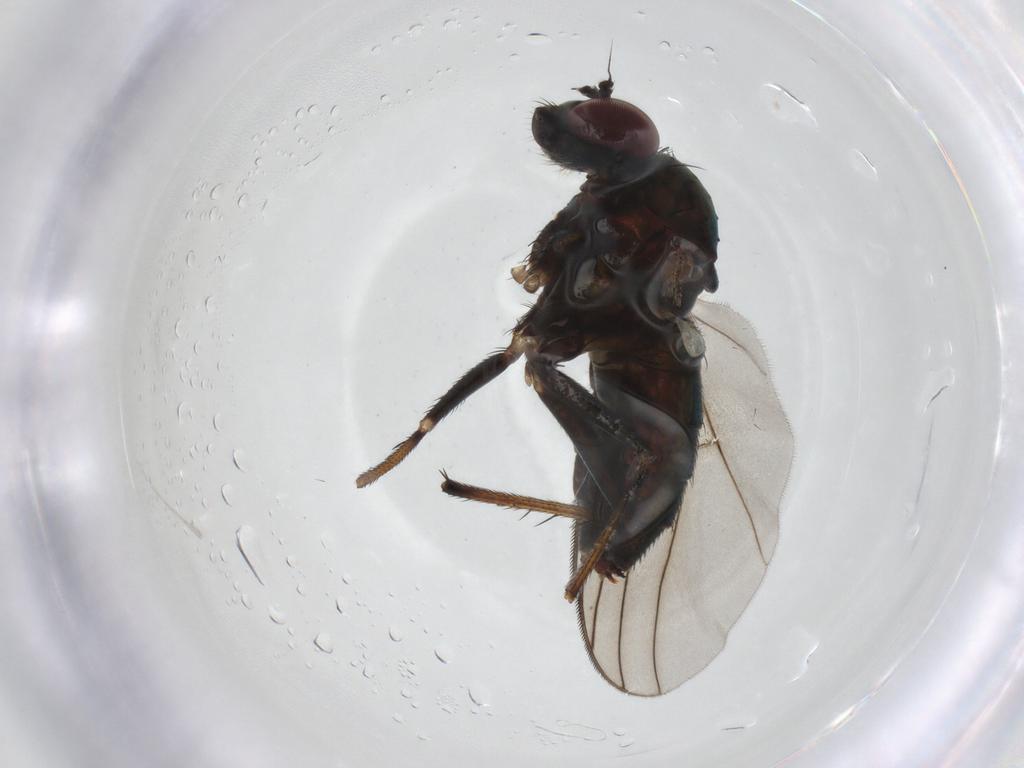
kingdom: Animalia
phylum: Arthropoda
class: Insecta
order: Diptera
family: Dolichopodidae
